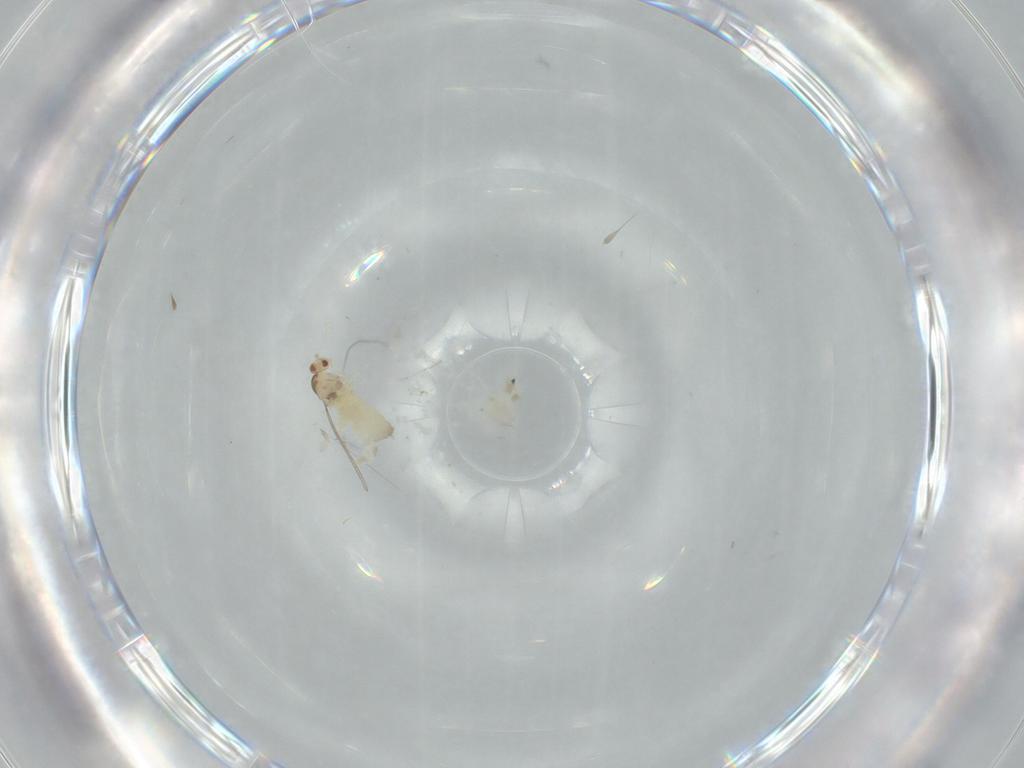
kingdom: Animalia
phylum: Arthropoda
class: Insecta
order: Diptera
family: Cecidomyiidae
